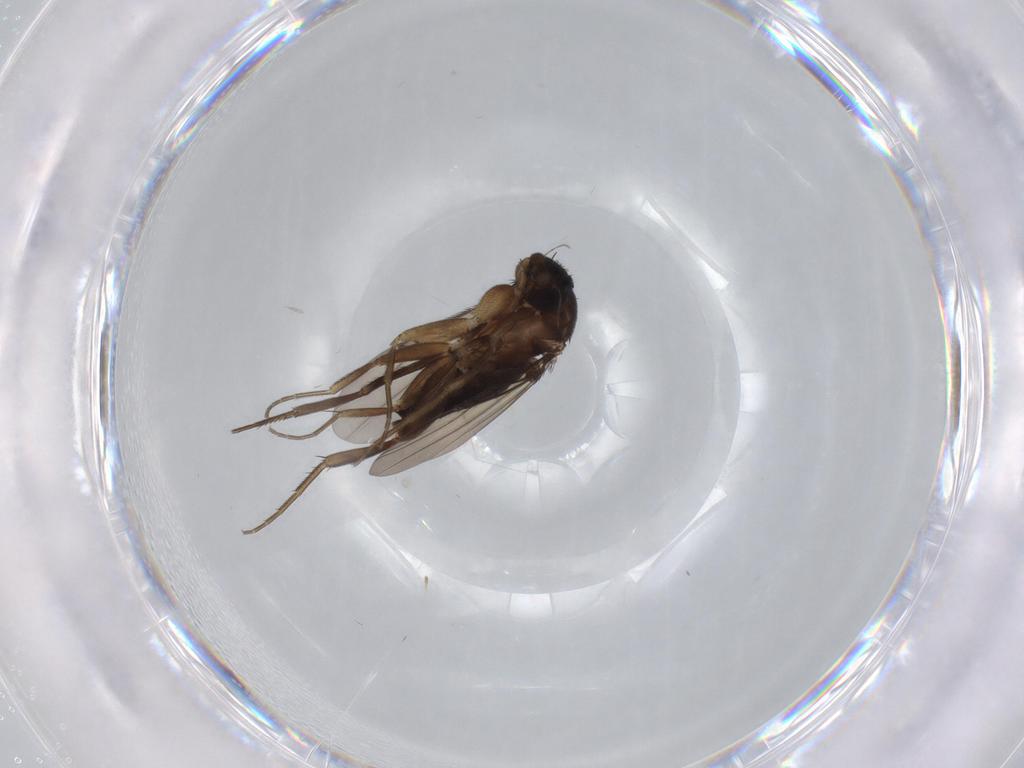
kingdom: Animalia
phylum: Arthropoda
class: Insecta
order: Diptera
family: Phoridae
